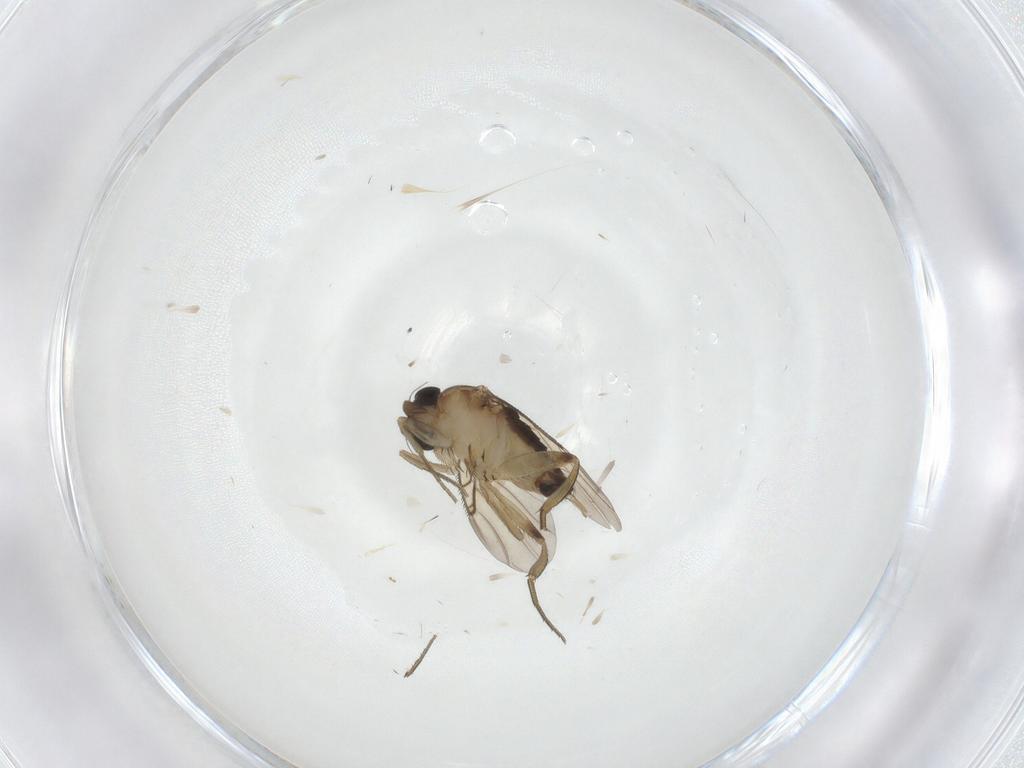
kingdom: Animalia
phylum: Arthropoda
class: Insecta
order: Diptera
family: Phoridae
